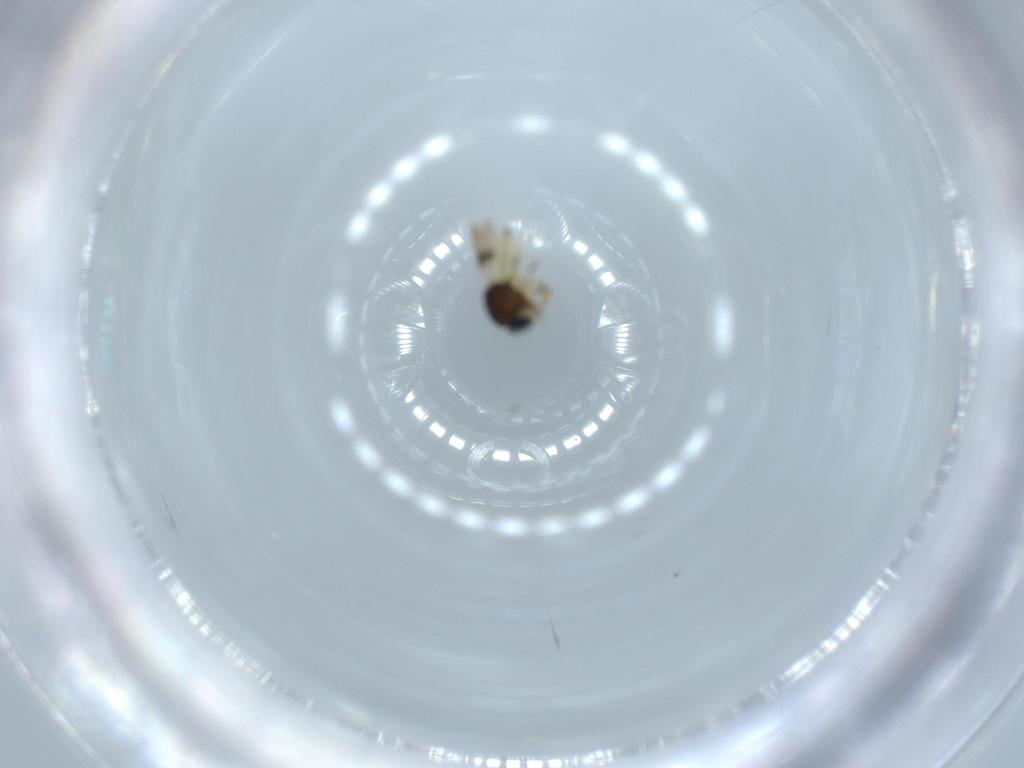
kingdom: Animalia
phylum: Arthropoda
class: Insecta
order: Hymenoptera
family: Scelionidae
